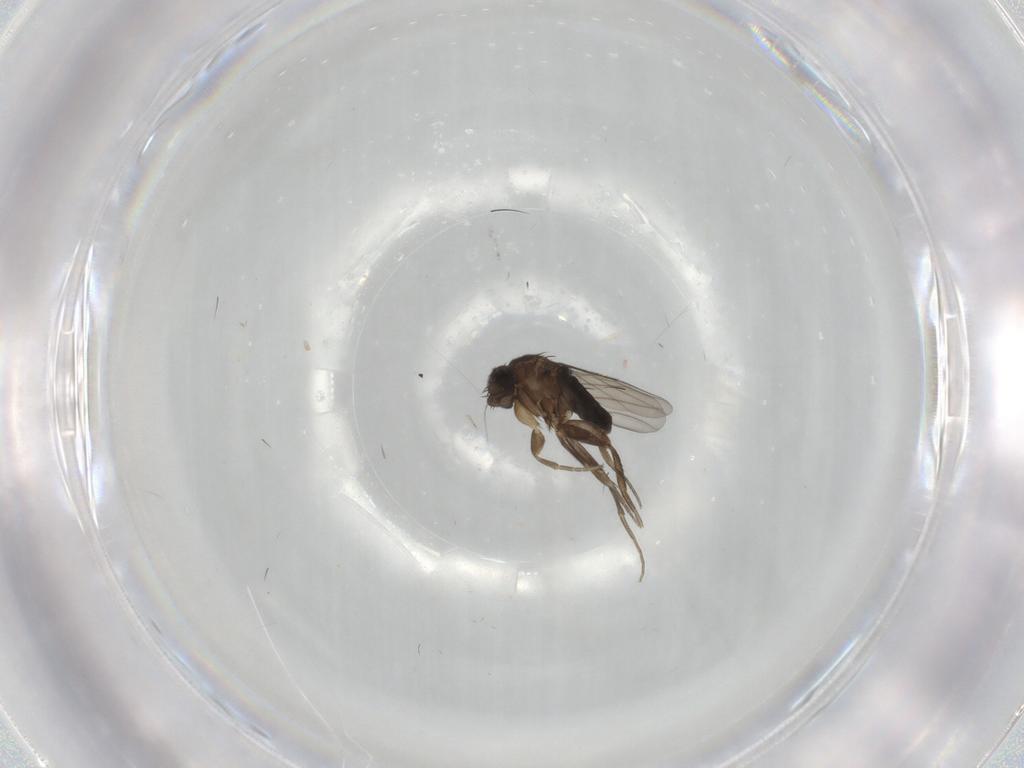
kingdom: Animalia
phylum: Arthropoda
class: Insecta
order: Diptera
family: Phoridae
